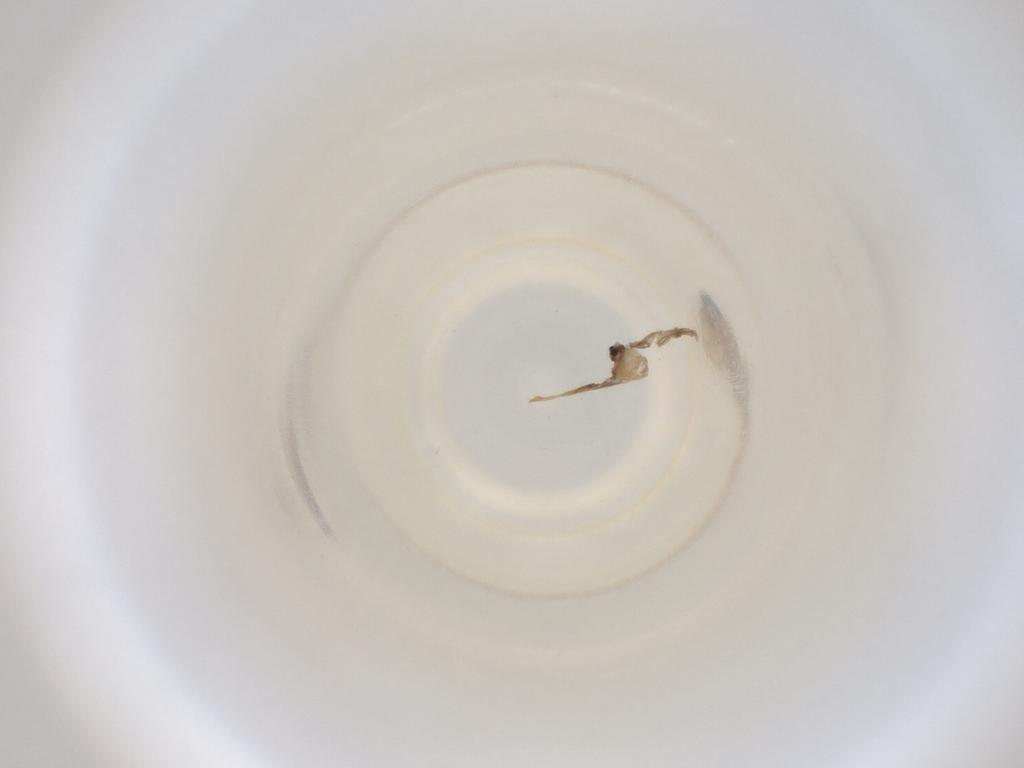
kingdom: Animalia
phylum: Arthropoda
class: Insecta
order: Diptera
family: Cecidomyiidae
